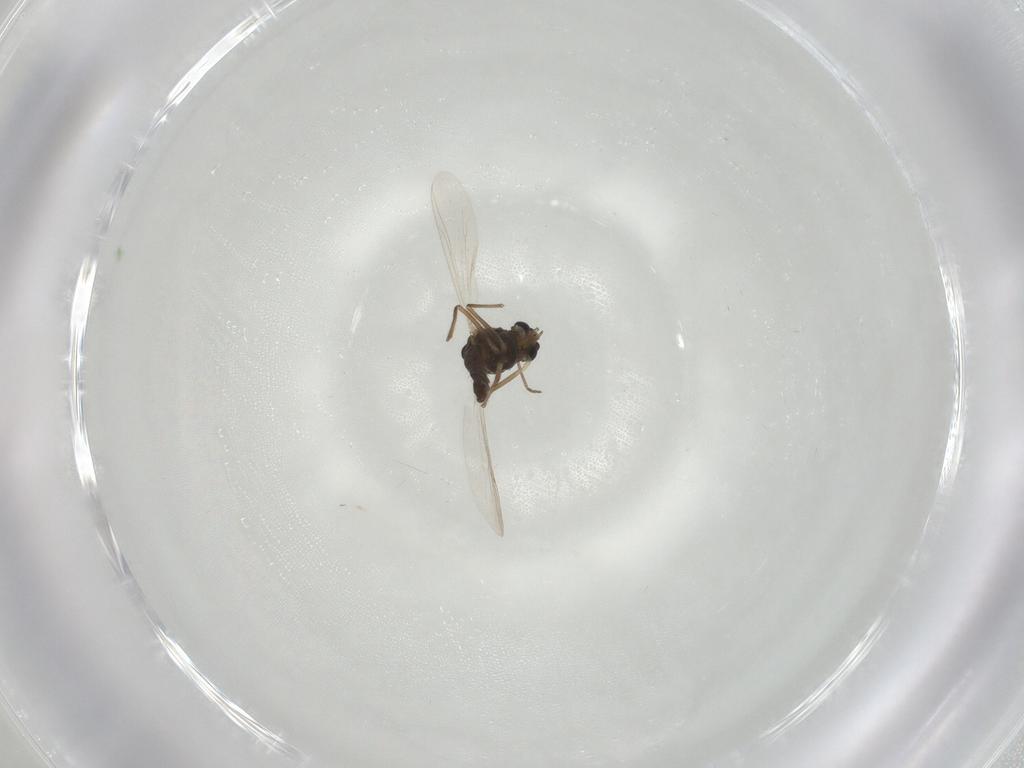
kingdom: Animalia
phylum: Arthropoda
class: Insecta
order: Diptera
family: Chironomidae
